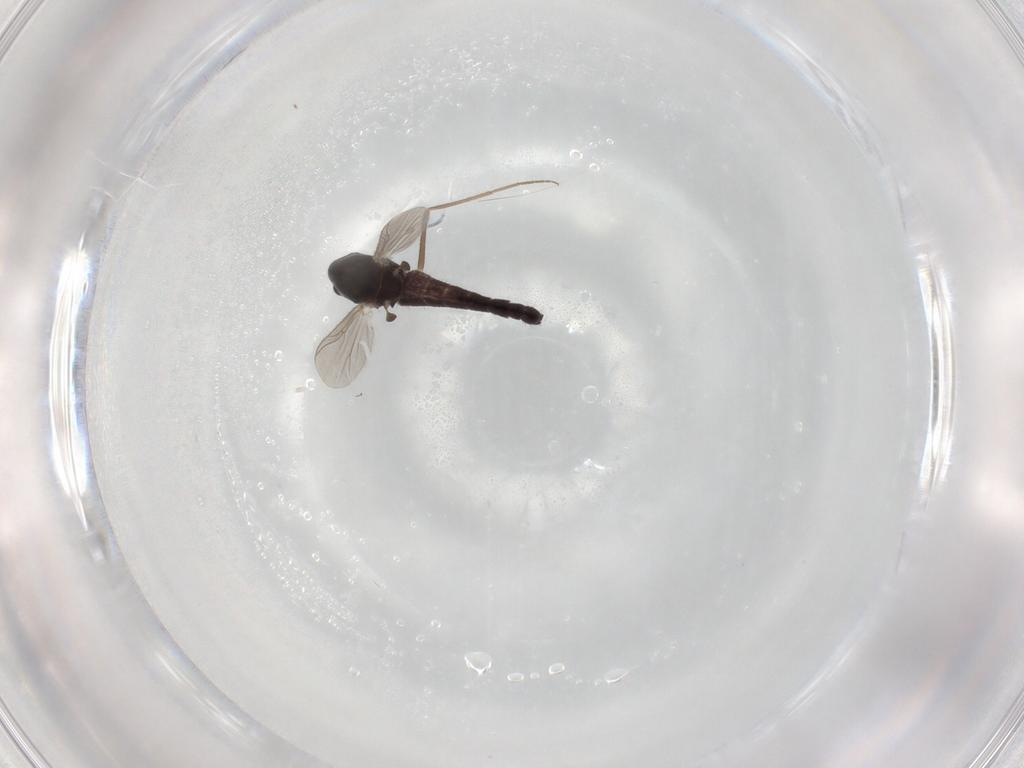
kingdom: Animalia
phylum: Arthropoda
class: Insecta
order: Diptera
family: Chironomidae
